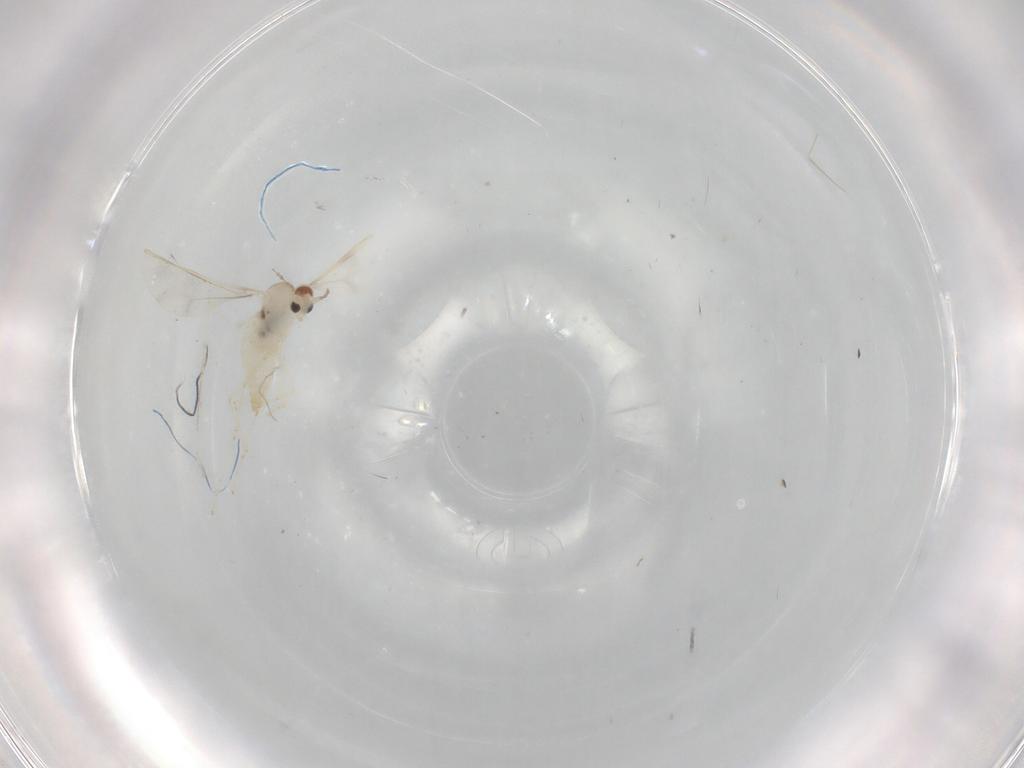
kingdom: Animalia
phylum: Arthropoda
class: Insecta
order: Diptera
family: Cecidomyiidae
